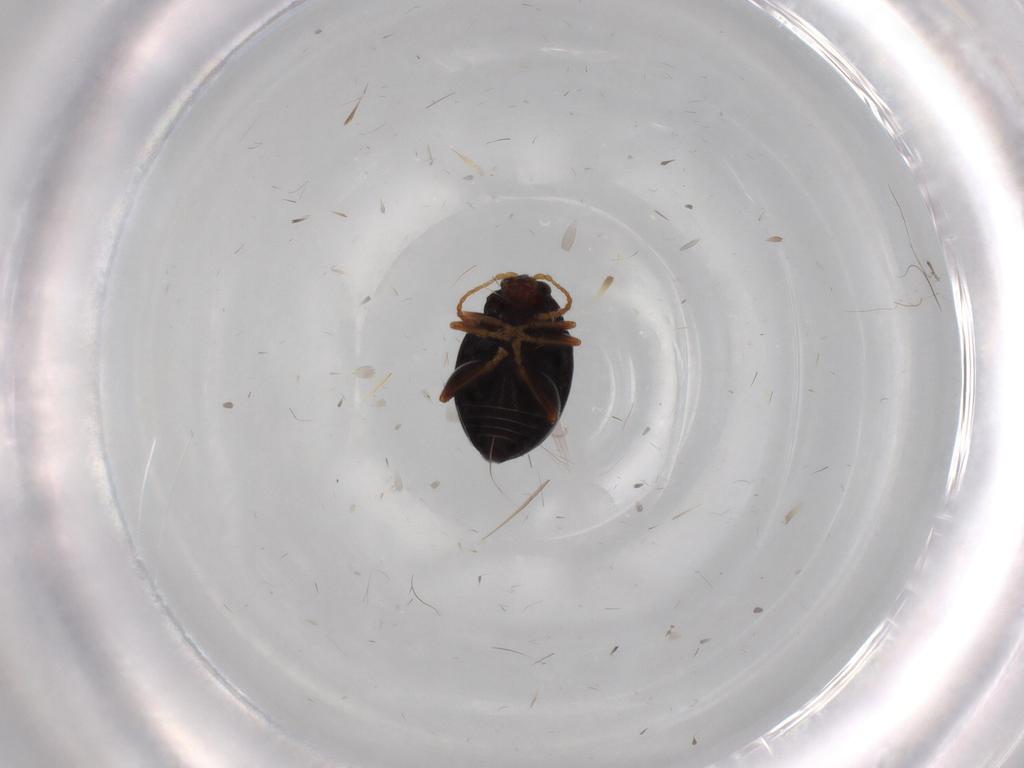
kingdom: Animalia
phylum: Arthropoda
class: Insecta
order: Coleoptera
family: Chrysomelidae
